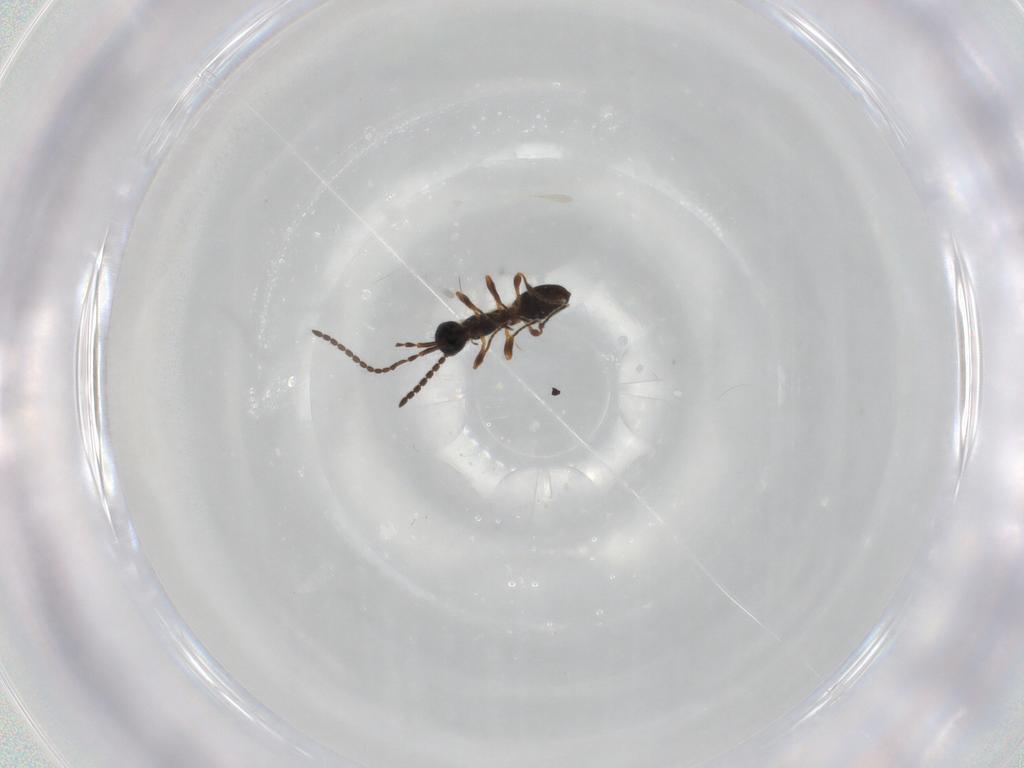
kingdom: Animalia
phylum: Arthropoda
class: Insecta
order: Hymenoptera
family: Diapriidae
